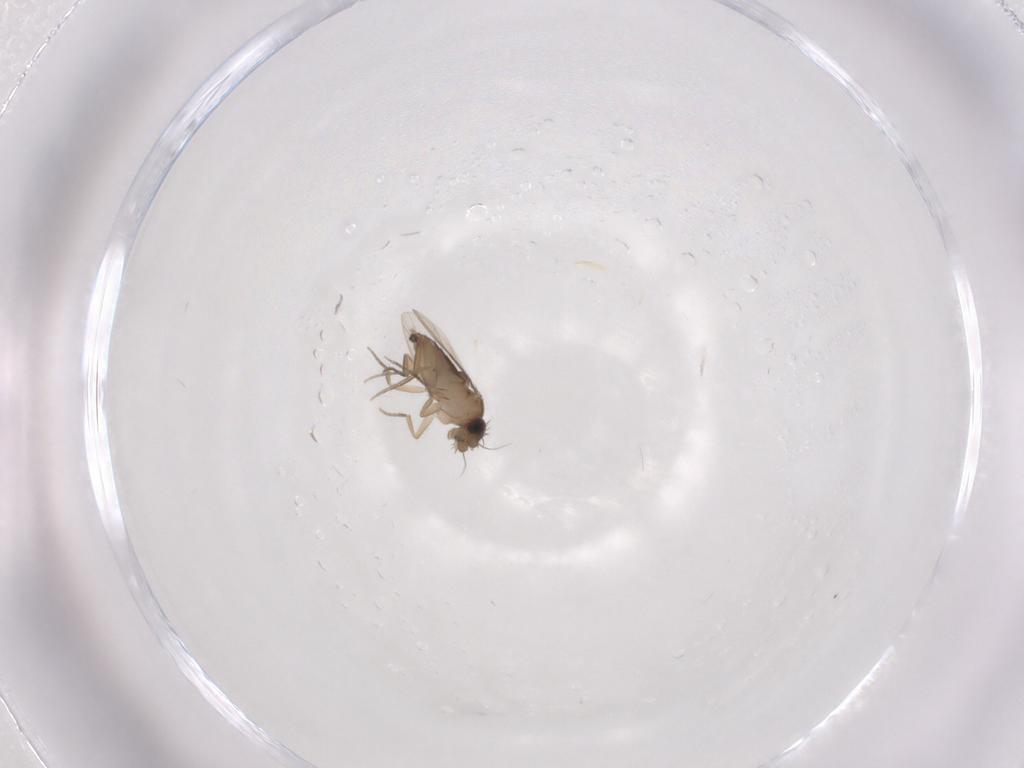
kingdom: Animalia
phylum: Arthropoda
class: Insecta
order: Diptera
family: Phoridae
